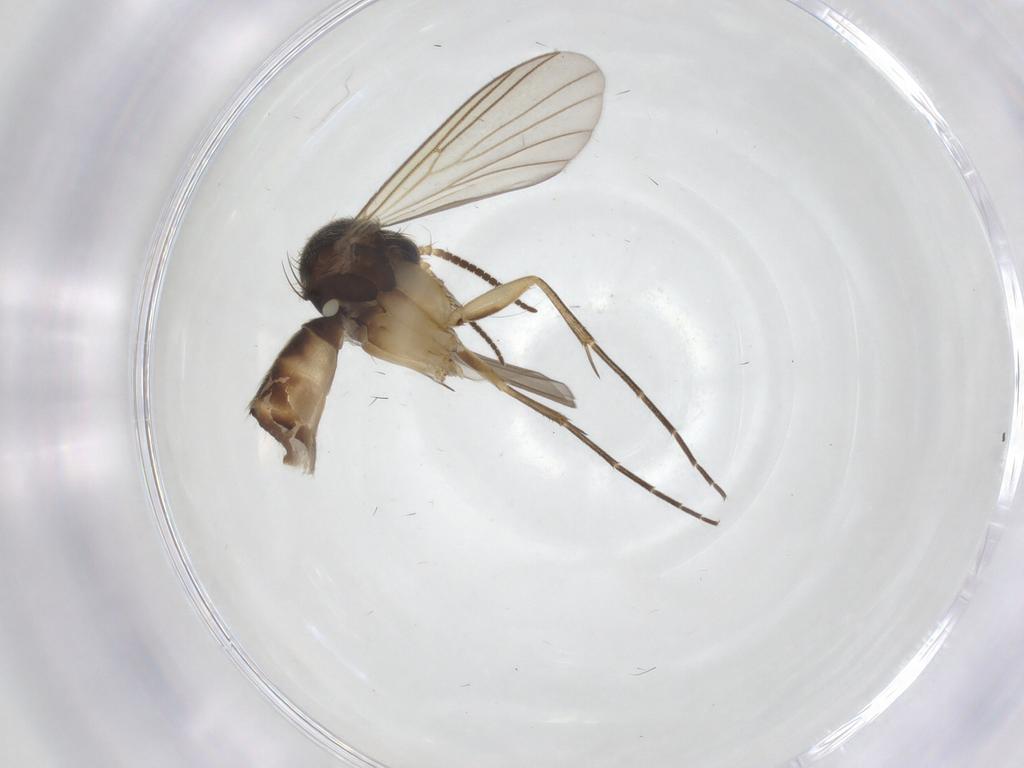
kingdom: Animalia
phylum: Arthropoda
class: Insecta
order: Diptera
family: Mycetophilidae
